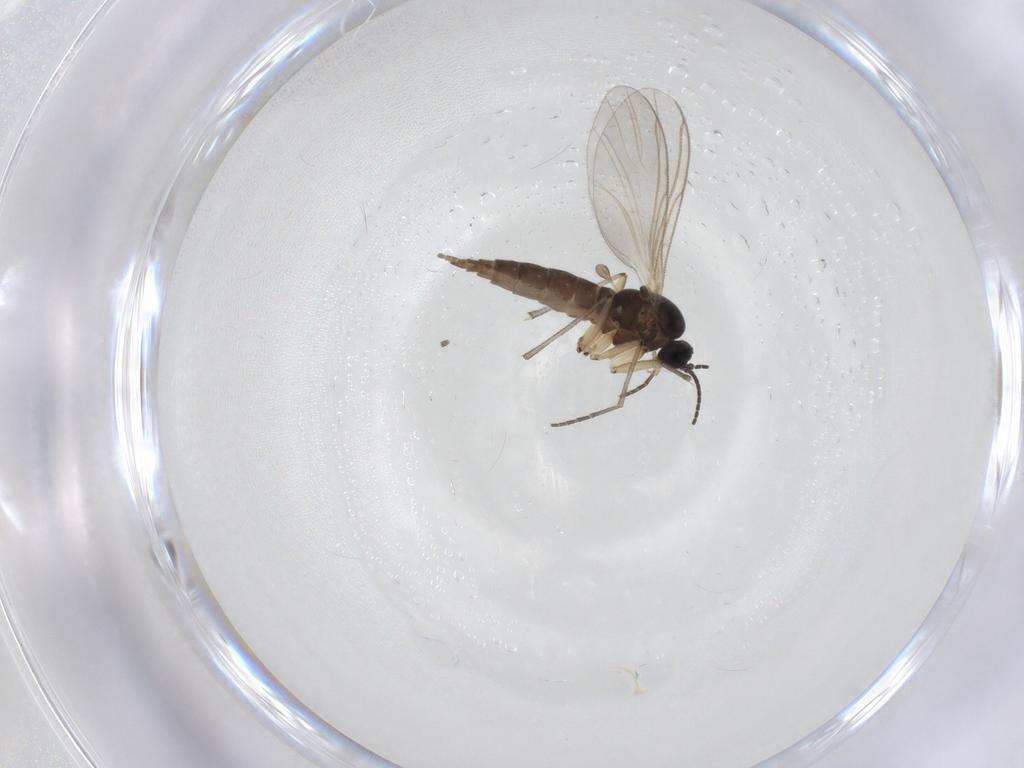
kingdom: Animalia
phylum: Arthropoda
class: Insecta
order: Diptera
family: Sciaridae
